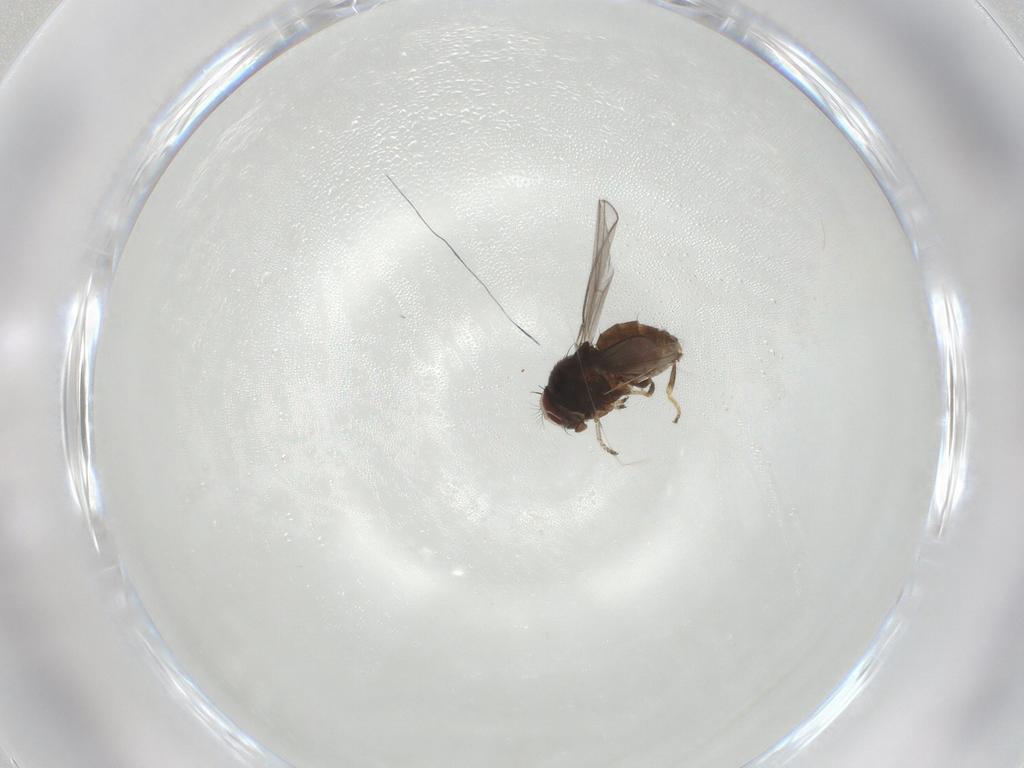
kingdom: Animalia
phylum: Arthropoda
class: Insecta
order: Diptera
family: Drosophilidae
